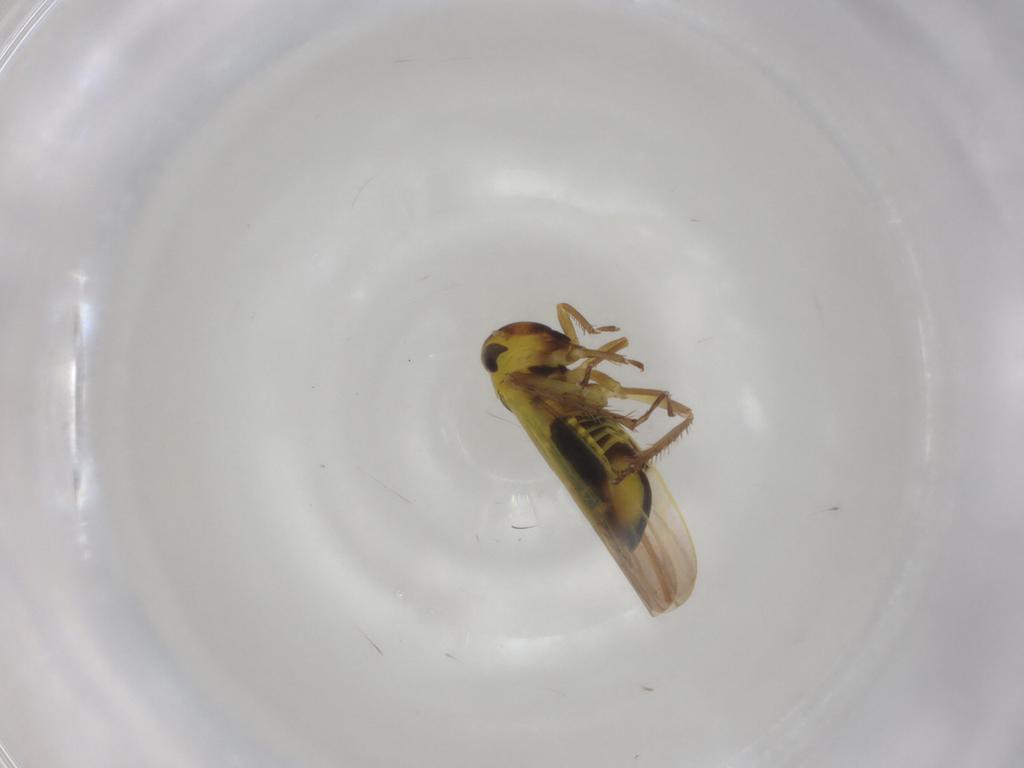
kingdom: Animalia
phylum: Arthropoda
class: Insecta
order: Hemiptera
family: Cicadellidae
